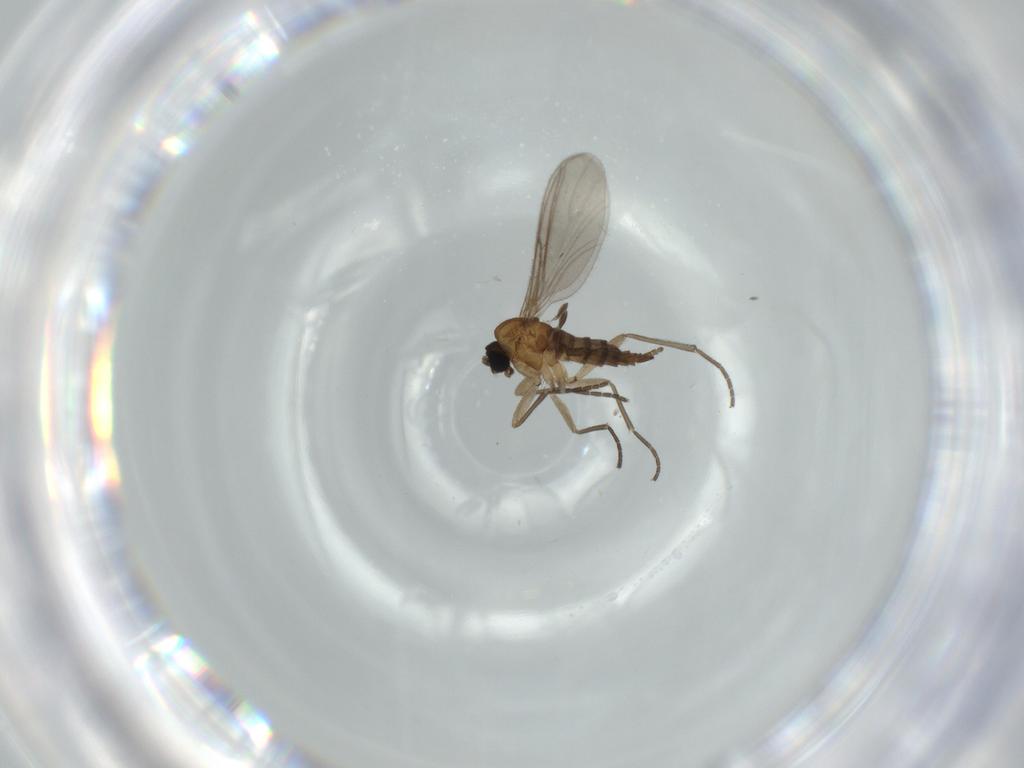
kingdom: Animalia
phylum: Arthropoda
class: Insecta
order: Diptera
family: Sciaridae
